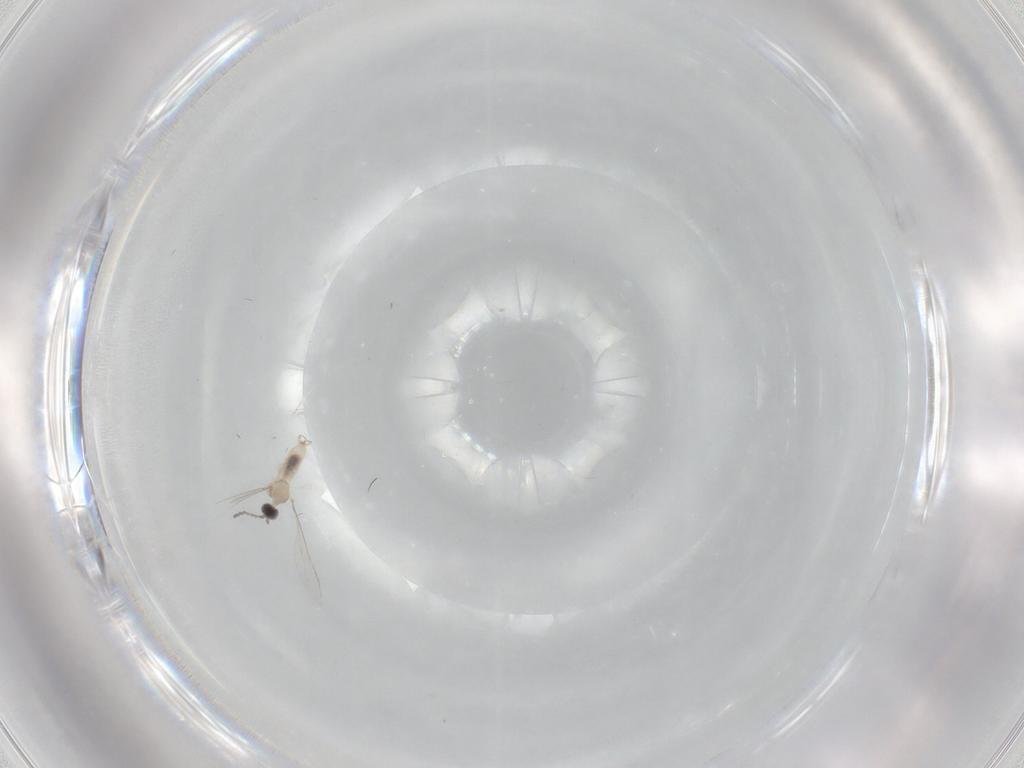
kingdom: Animalia
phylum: Arthropoda
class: Insecta
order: Diptera
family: Cecidomyiidae
